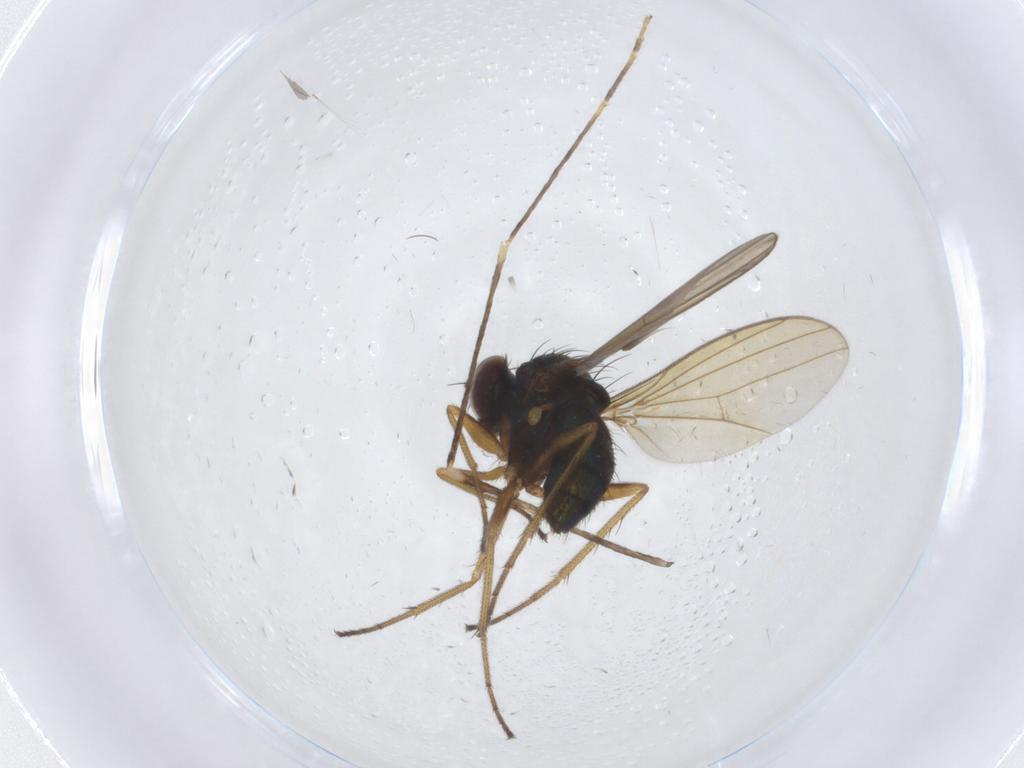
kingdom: Animalia
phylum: Arthropoda
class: Insecta
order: Diptera
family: Dolichopodidae
